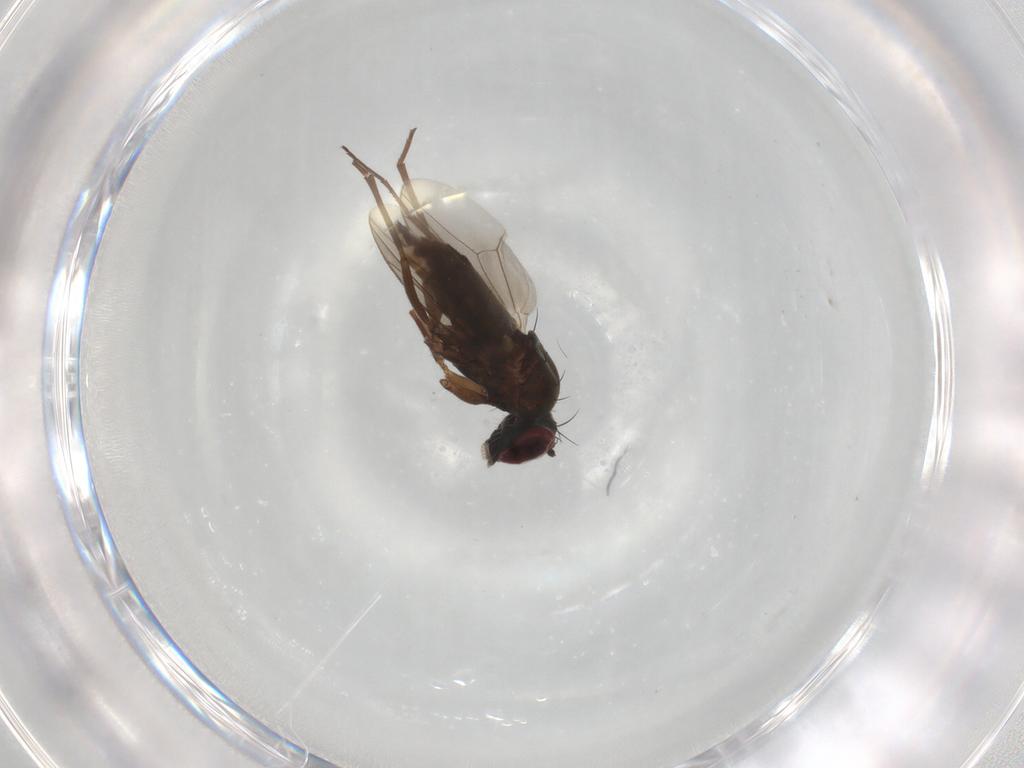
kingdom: Animalia
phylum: Arthropoda
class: Insecta
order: Diptera
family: Dolichopodidae
